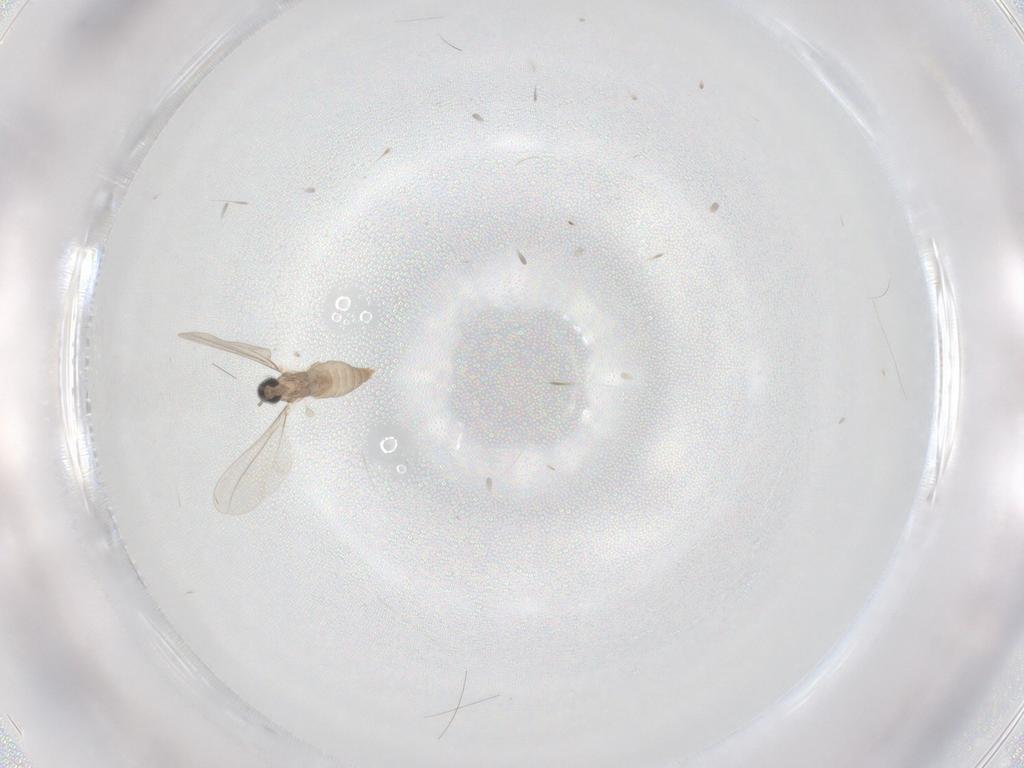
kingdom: Animalia
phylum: Arthropoda
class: Insecta
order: Diptera
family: Cecidomyiidae
